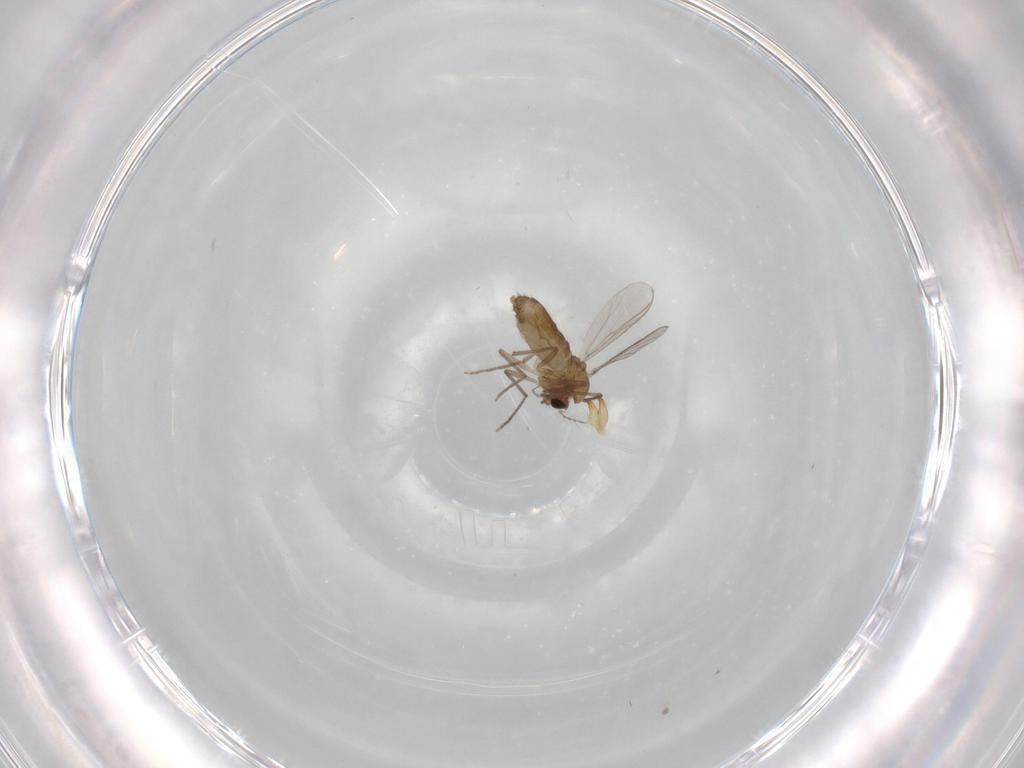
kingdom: Animalia
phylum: Arthropoda
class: Insecta
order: Diptera
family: Chironomidae
